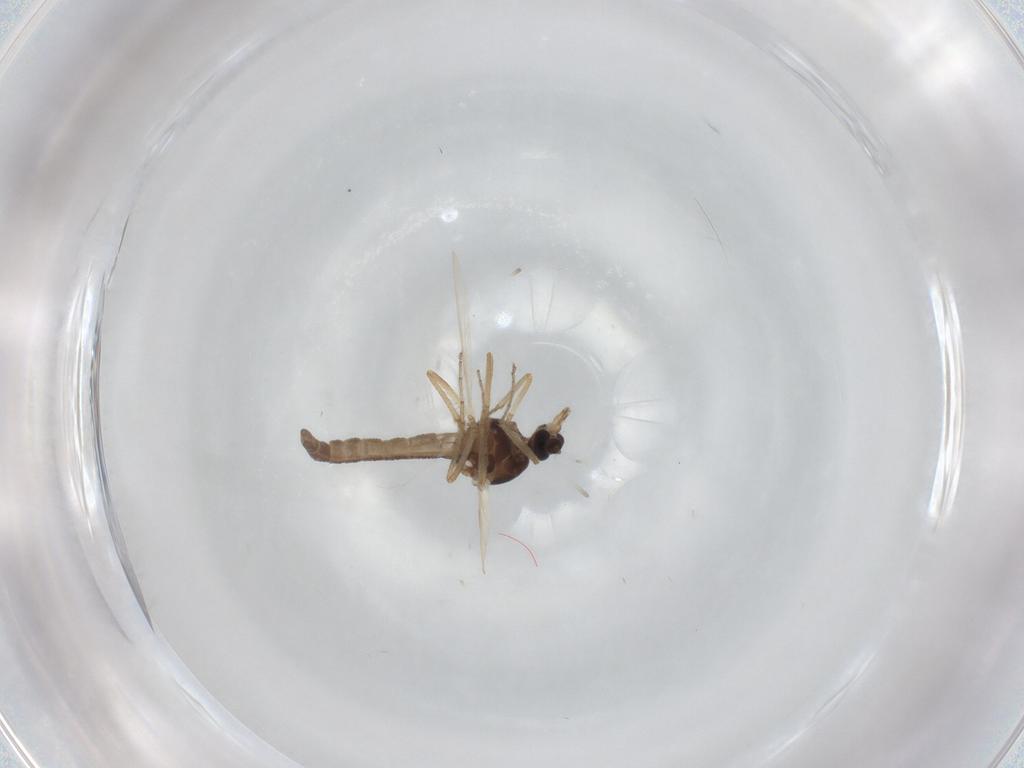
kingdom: Animalia
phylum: Arthropoda
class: Insecta
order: Diptera
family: Ceratopogonidae
